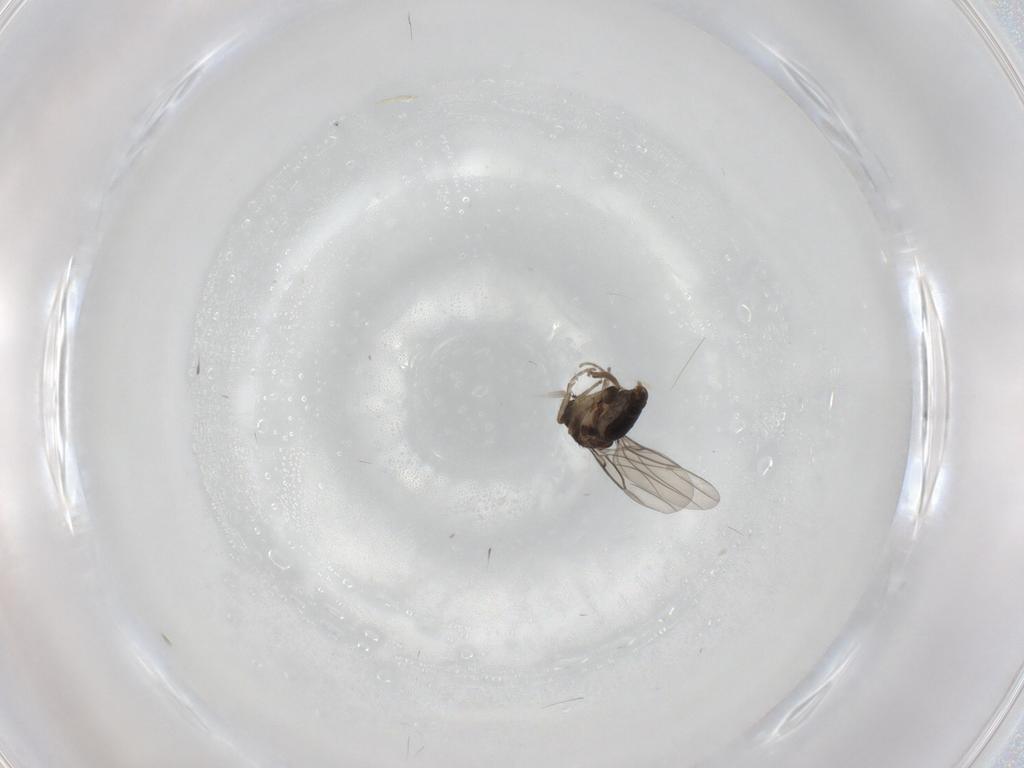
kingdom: Animalia
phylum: Arthropoda
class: Insecta
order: Diptera
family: Phoridae
